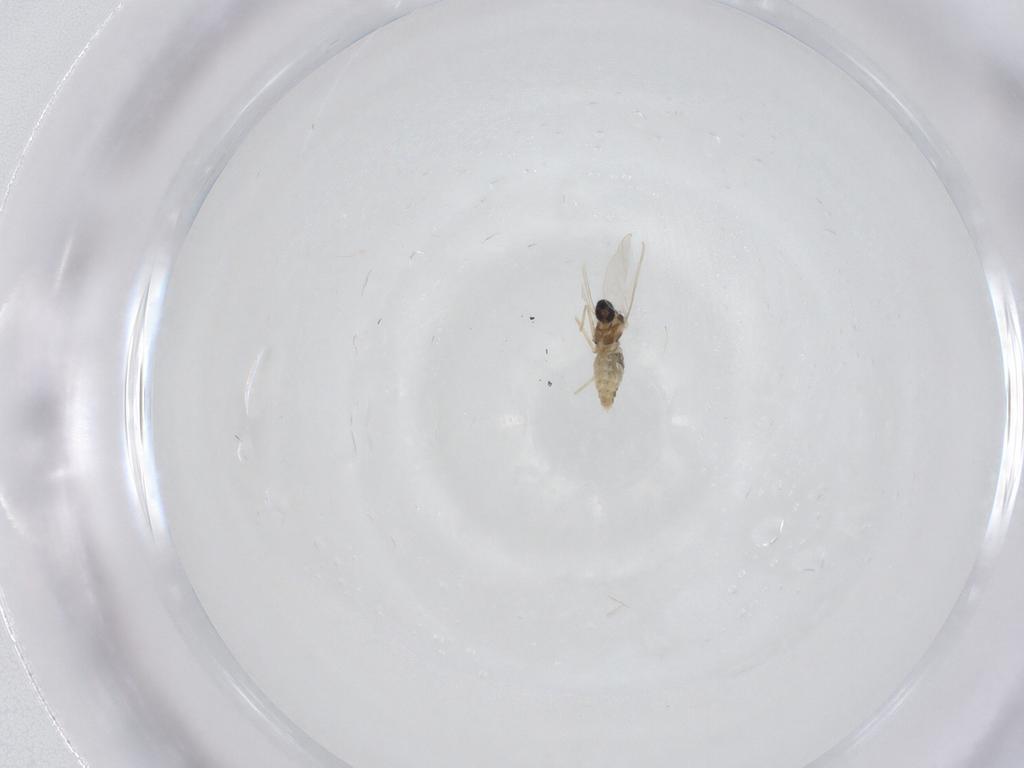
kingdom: Animalia
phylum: Arthropoda
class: Insecta
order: Diptera
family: Cecidomyiidae
